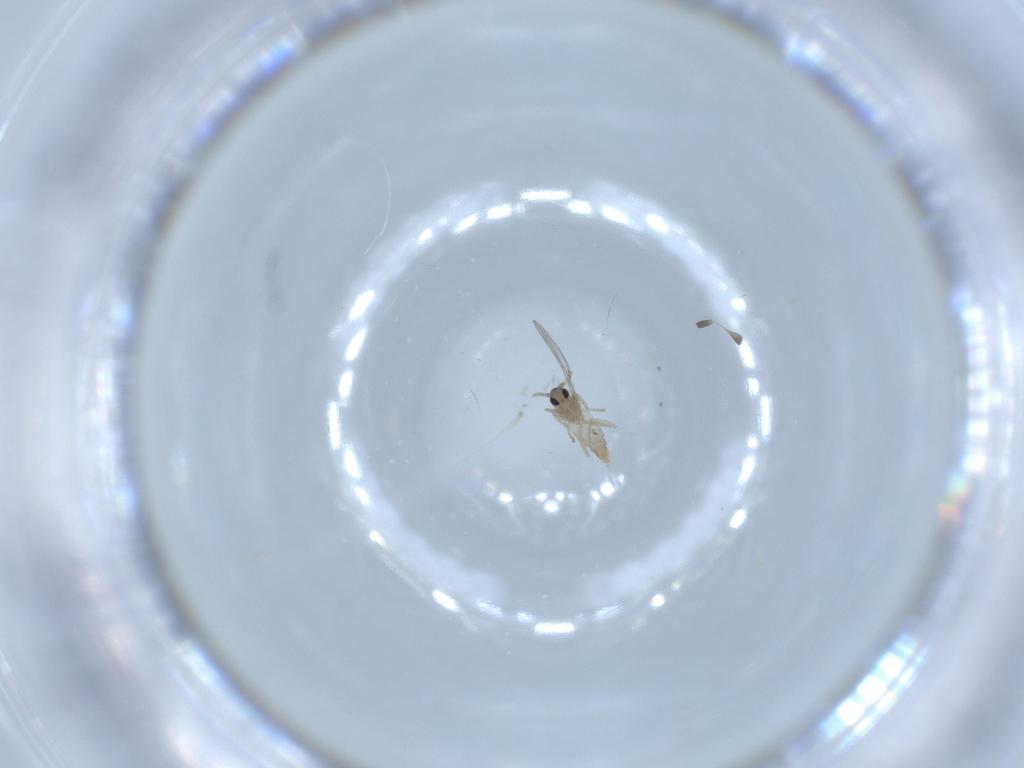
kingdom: Animalia
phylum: Arthropoda
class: Insecta
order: Diptera
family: Cecidomyiidae
